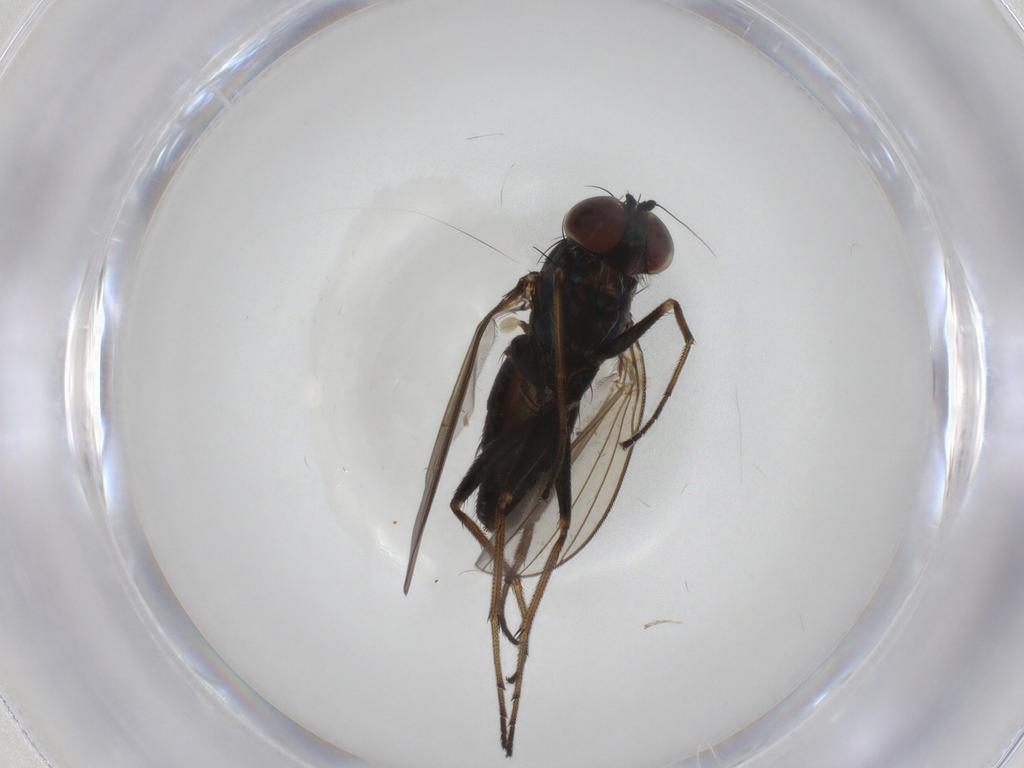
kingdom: Animalia
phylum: Arthropoda
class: Insecta
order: Diptera
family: Dolichopodidae
